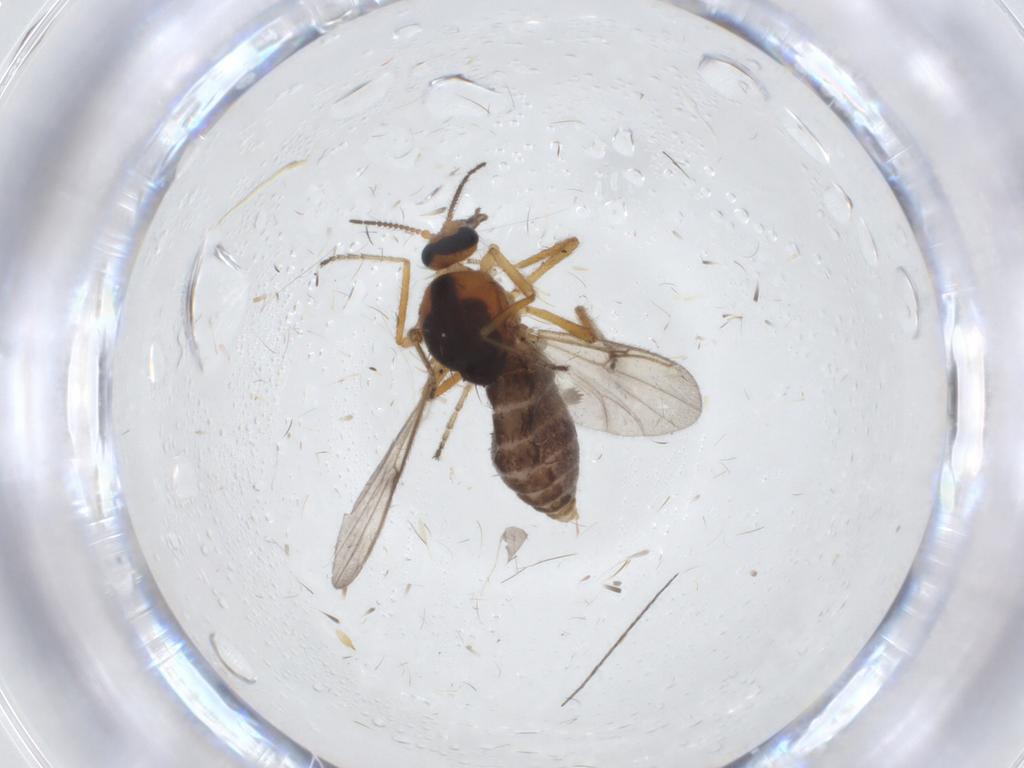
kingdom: Animalia
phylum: Arthropoda
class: Insecta
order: Diptera
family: Ceratopogonidae
